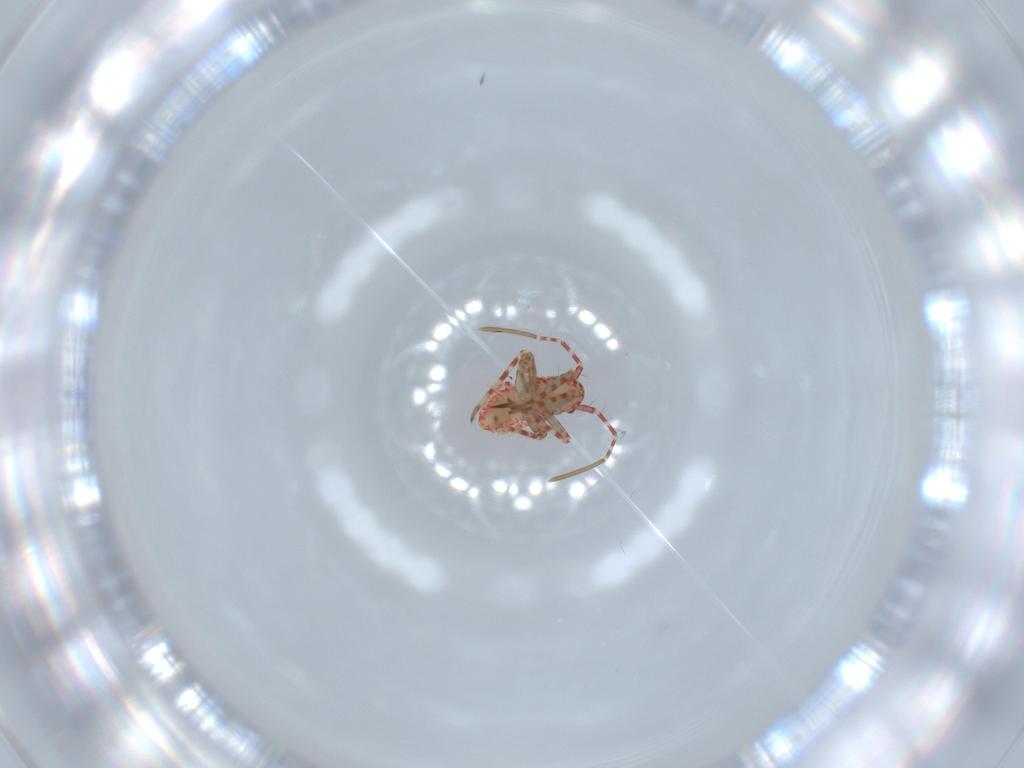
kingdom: Animalia
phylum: Arthropoda
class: Insecta
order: Hemiptera
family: Miridae
